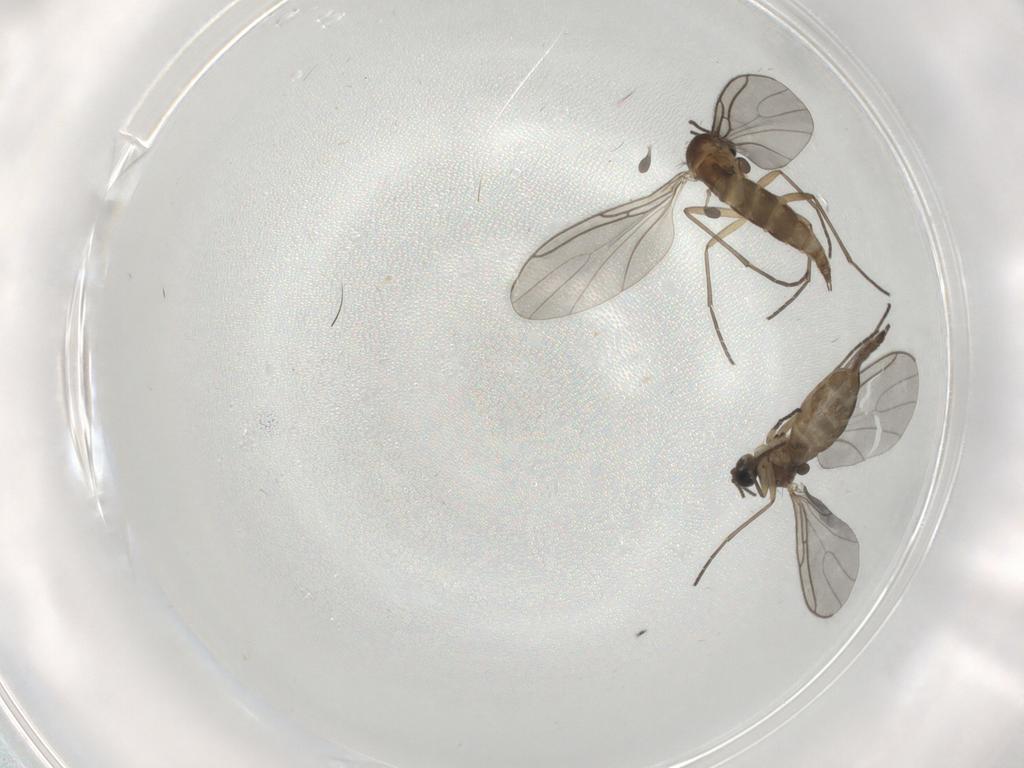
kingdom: Animalia
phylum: Arthropoda
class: Insecta
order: Diptera
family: Sciaridae
